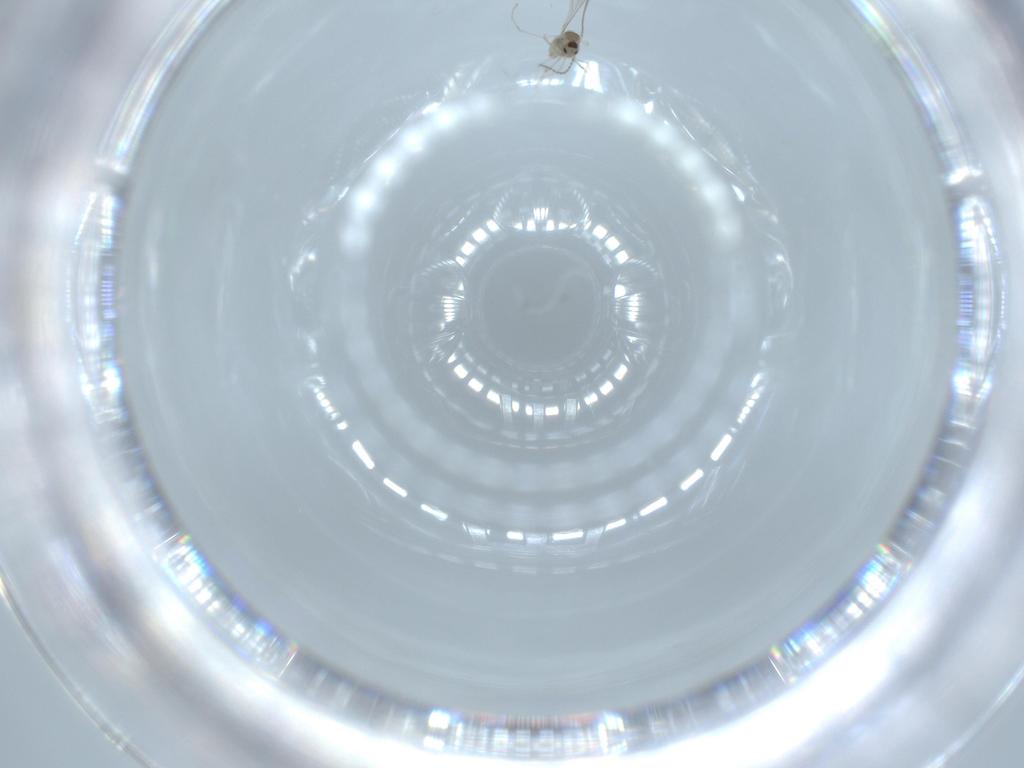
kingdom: Animalia
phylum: Arthropoda
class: Insecta
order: Diptera
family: Cecidomyiidae
